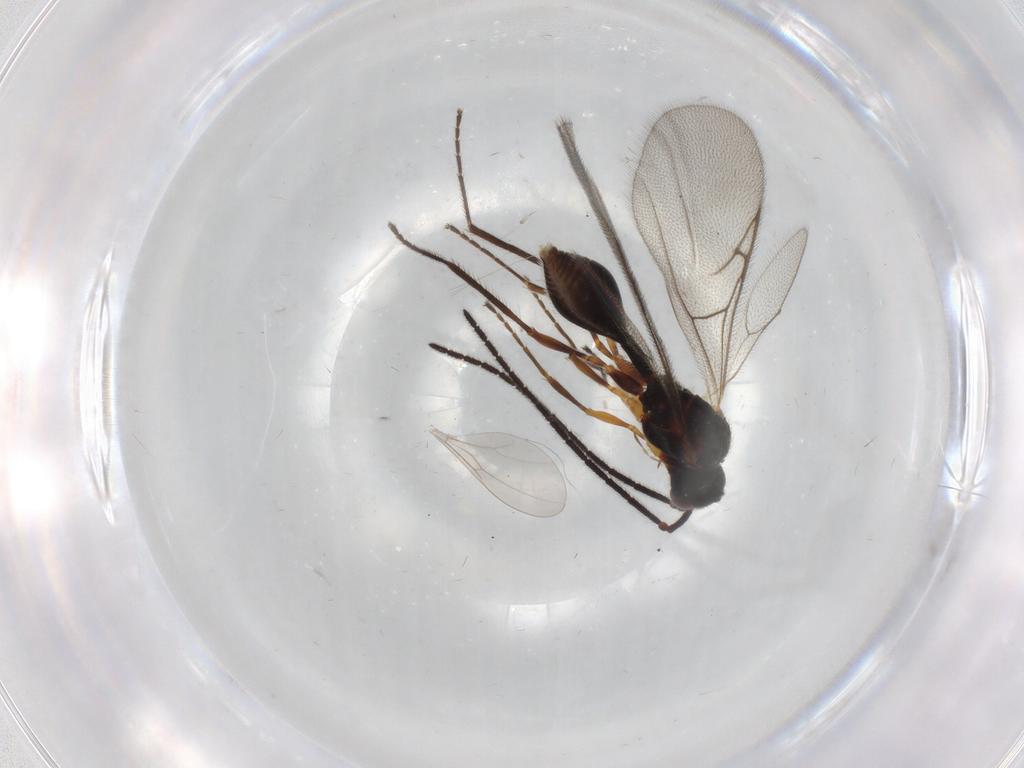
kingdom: Animalia
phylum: Arthropoda
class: Insecta
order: Hymenoptera
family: Diapriidae
